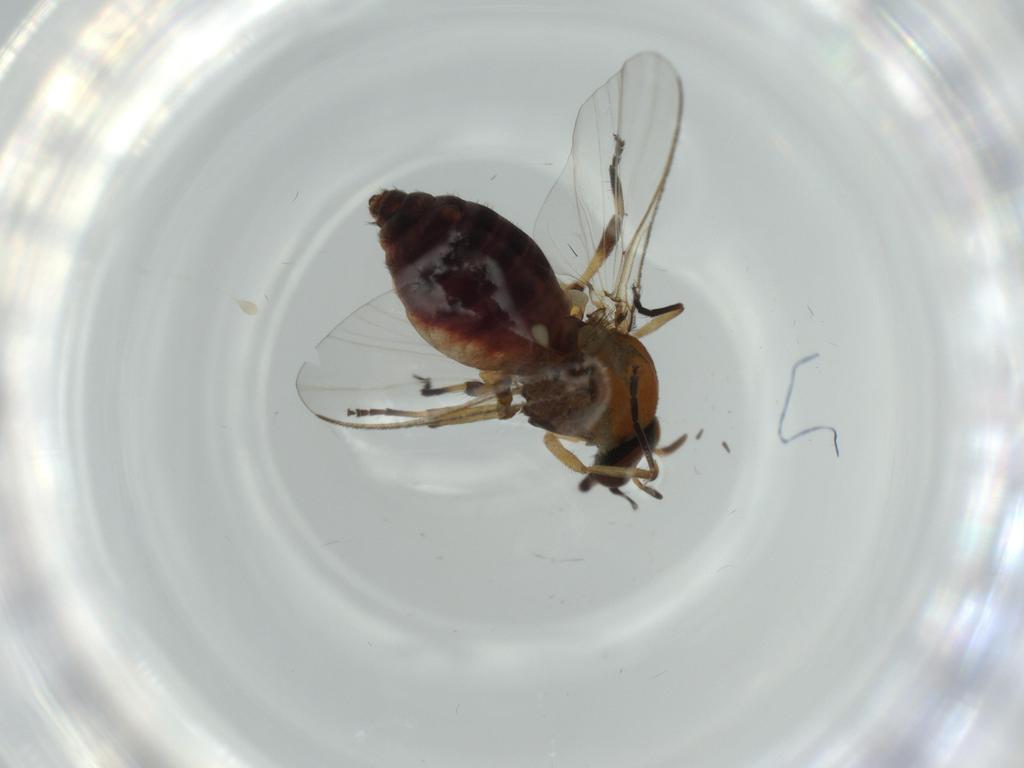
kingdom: Animalia
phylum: Arthropoda
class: Insecta
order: Diptera
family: Simuliidae
